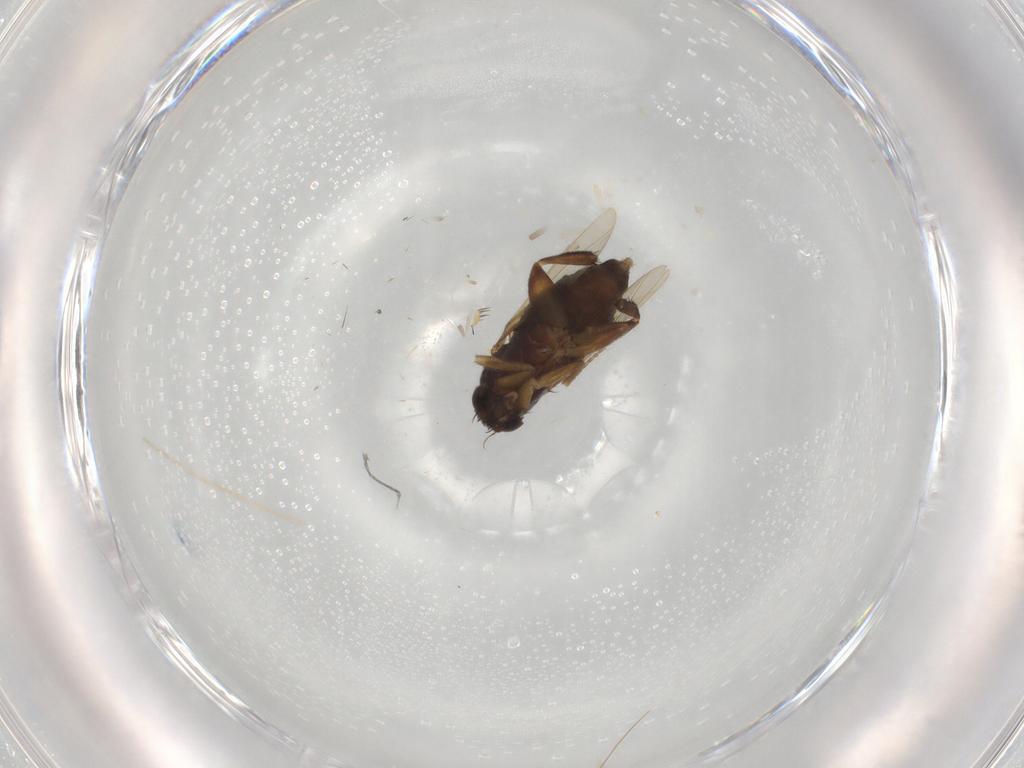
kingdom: Animalia
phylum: Arthropoda
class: Insecta
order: Diptera
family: Phoridae
